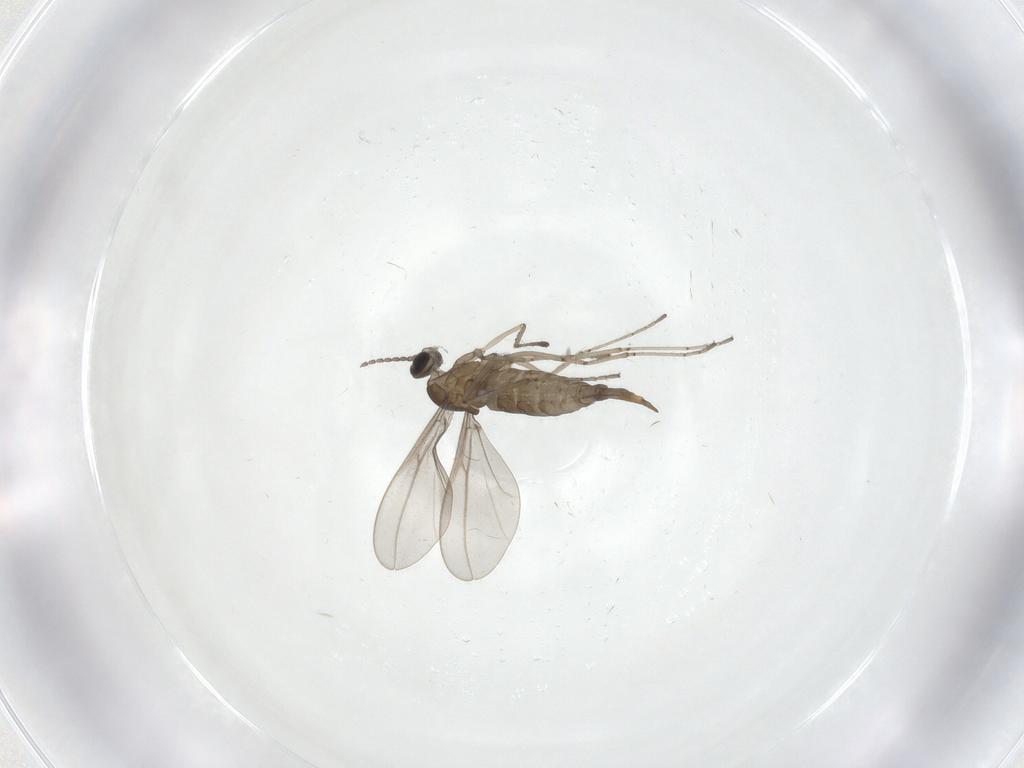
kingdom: Animalia
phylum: Arthropoda
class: Insecta
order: Diptera
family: Cecidomyiidae
